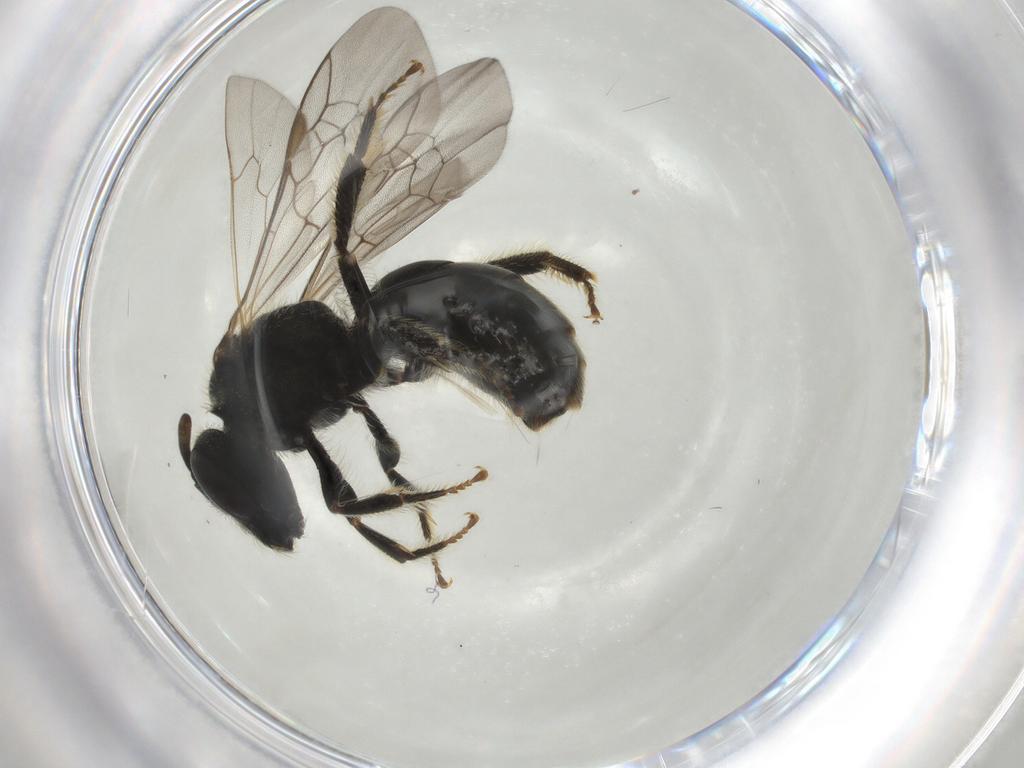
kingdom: Animalia
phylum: Arthropoda
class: Insecta
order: Hymenoptera
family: Halictidae
